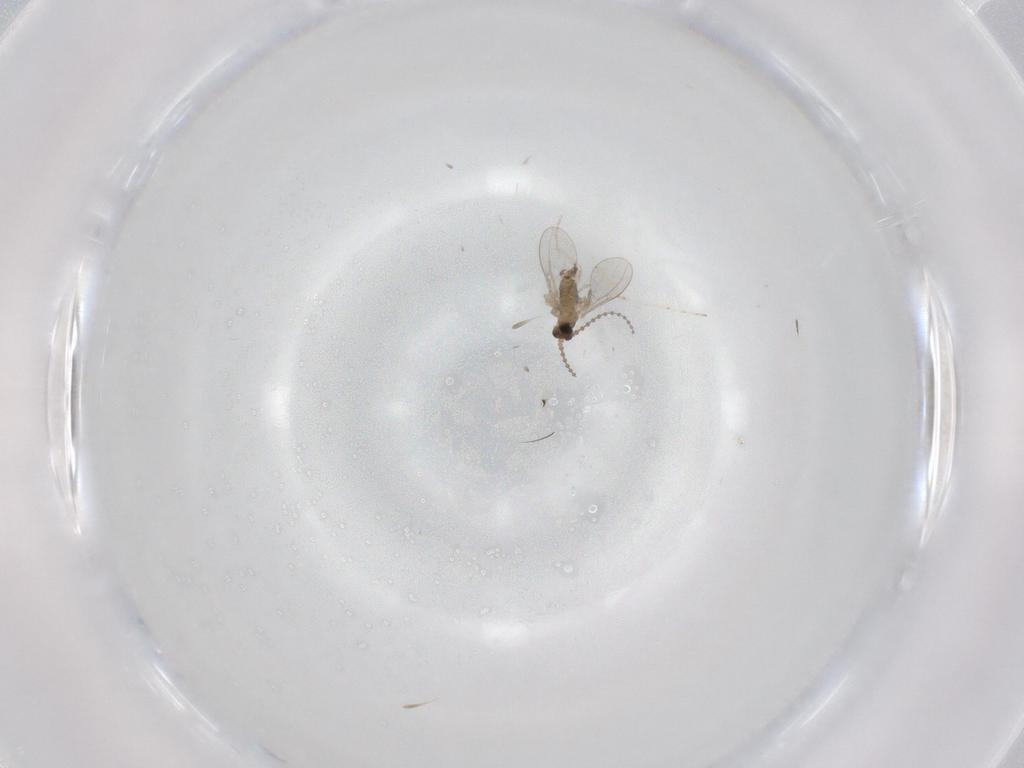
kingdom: Animalia
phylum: Arthropoda
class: Insecta
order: Diptera
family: Cecidomyiidae
